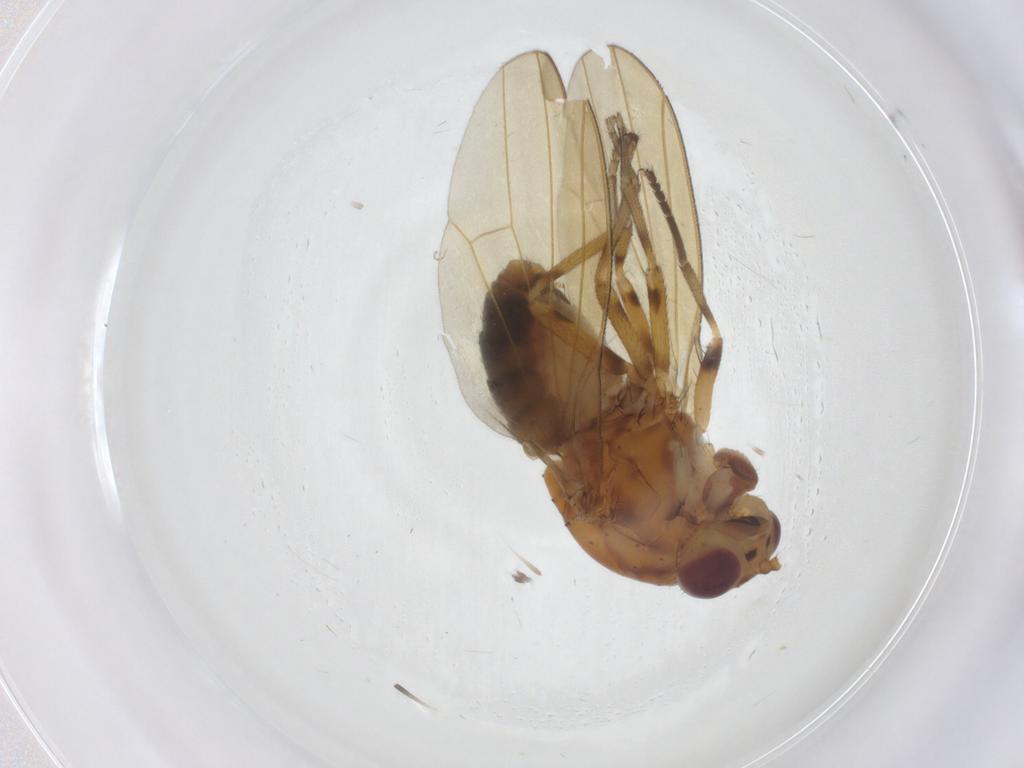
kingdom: Animalia
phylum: Arthropoda
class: Insecta
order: Diptera
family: Lauxaniidae
